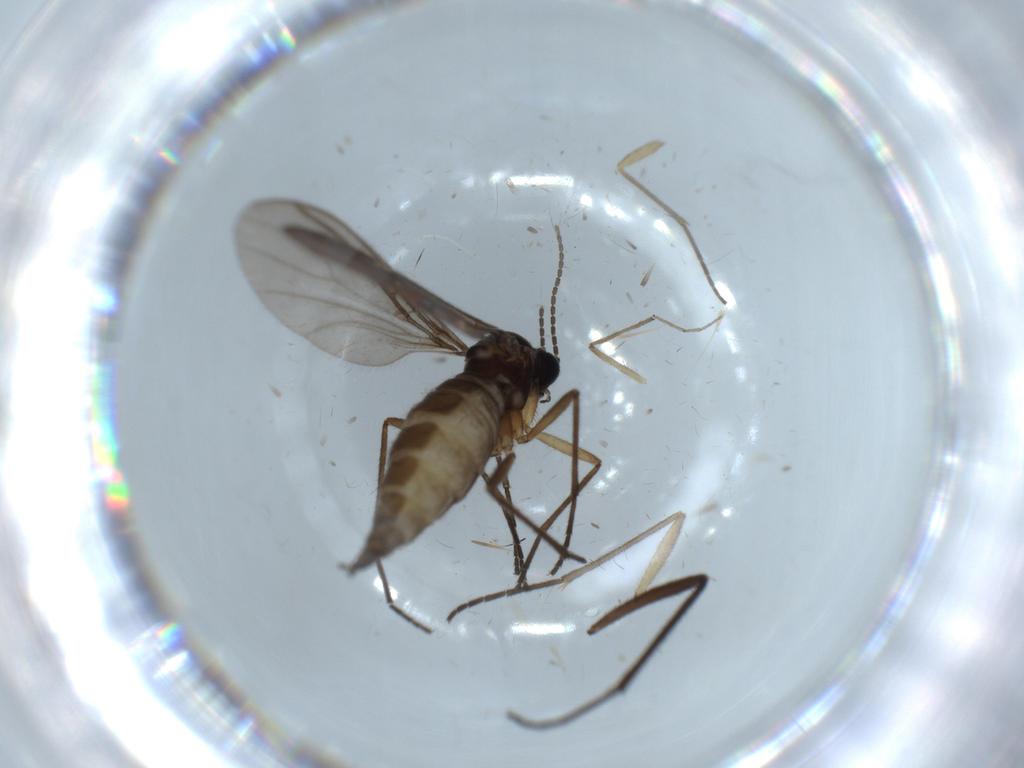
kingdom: Animalia
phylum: Arthropoda
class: Insecta
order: Diptera
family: Sciaridae
